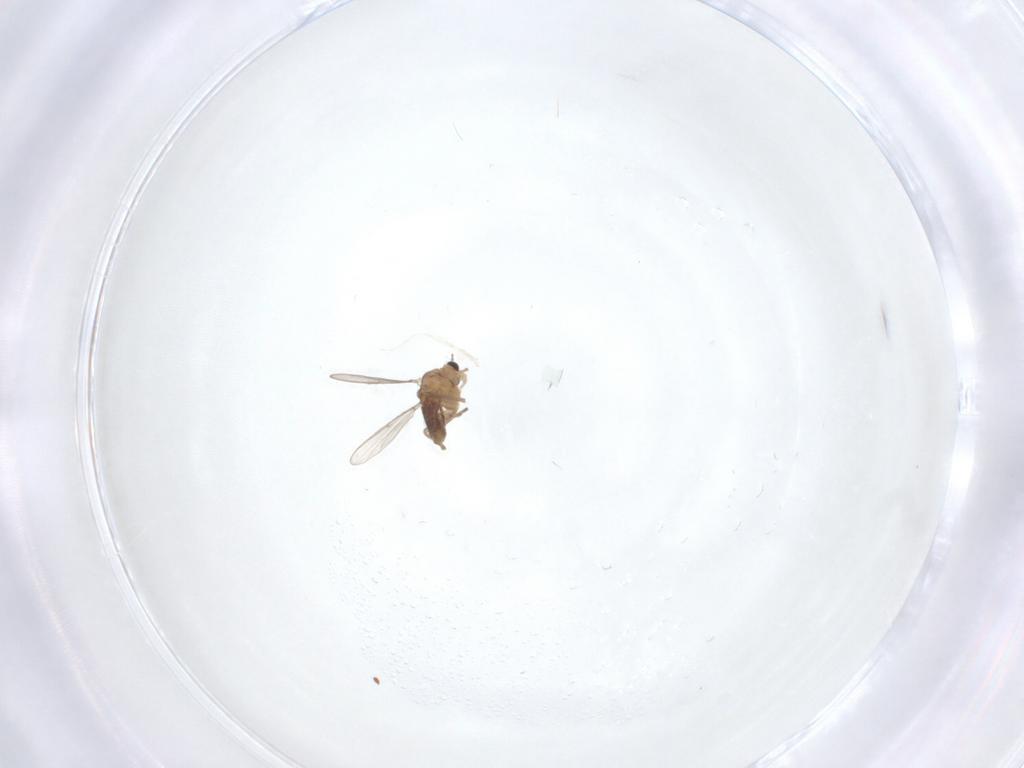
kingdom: Animalia
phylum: Arthropoda
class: Insecta
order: Diptera
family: Chironomidae
